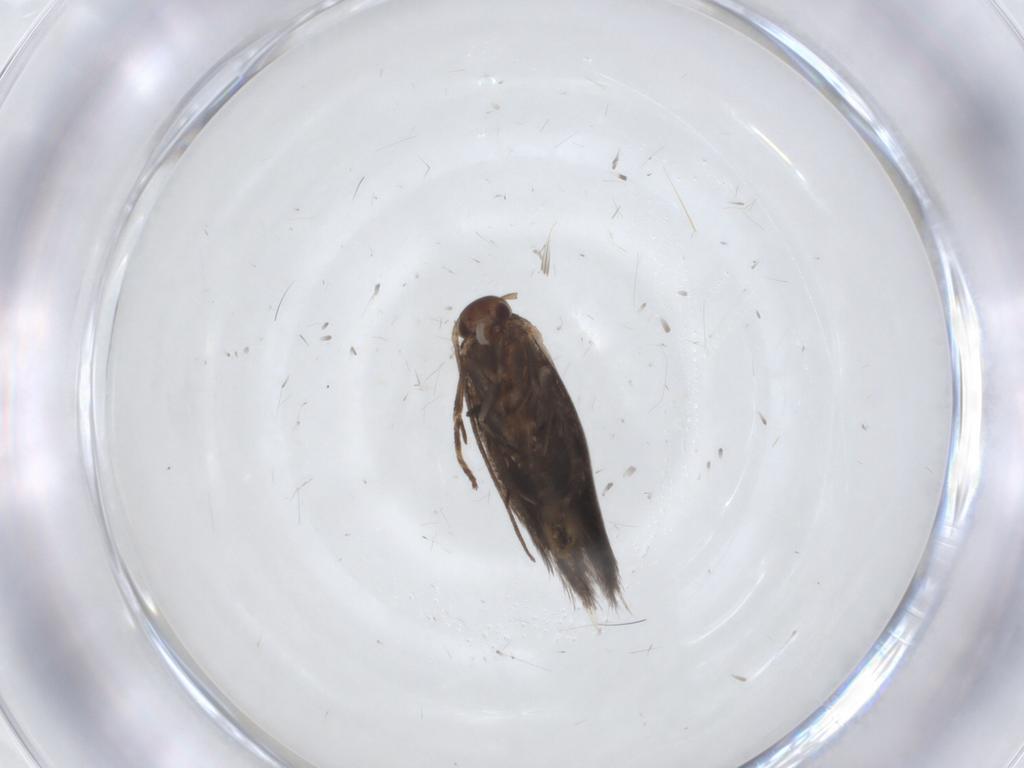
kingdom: Animalia
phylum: Arthropoda
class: Insecta
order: Lepidoptera
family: Elachistidae
